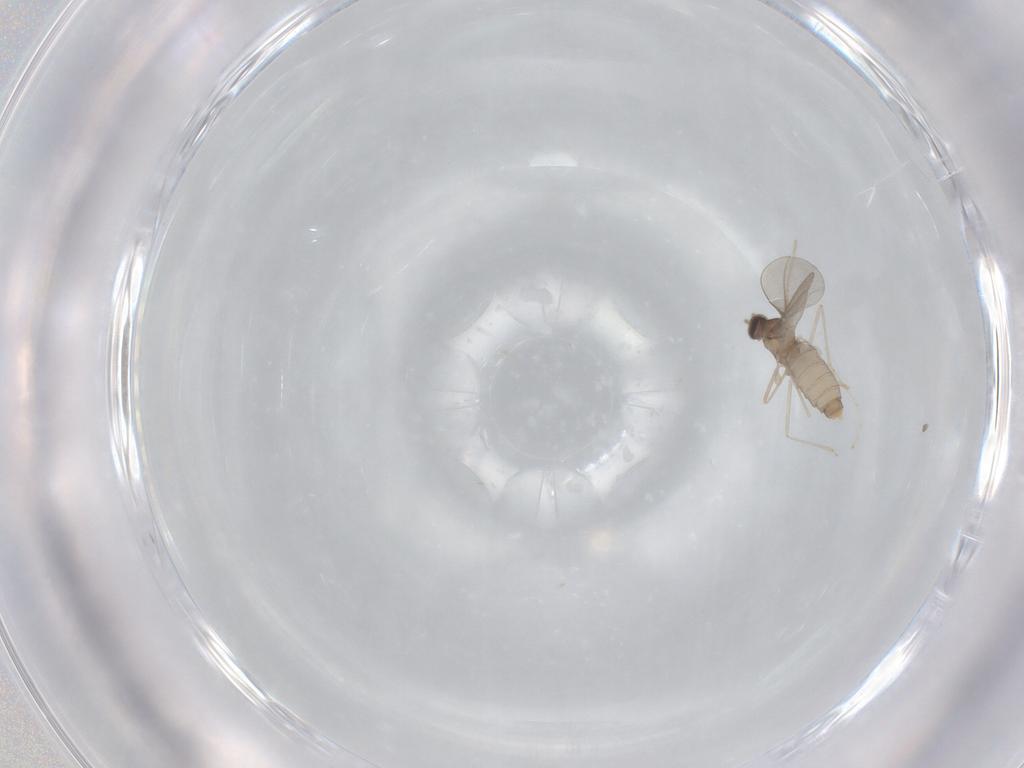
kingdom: Animalia
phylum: Arthropoda
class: Insecta
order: Diptera
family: Cecidomyiidae
